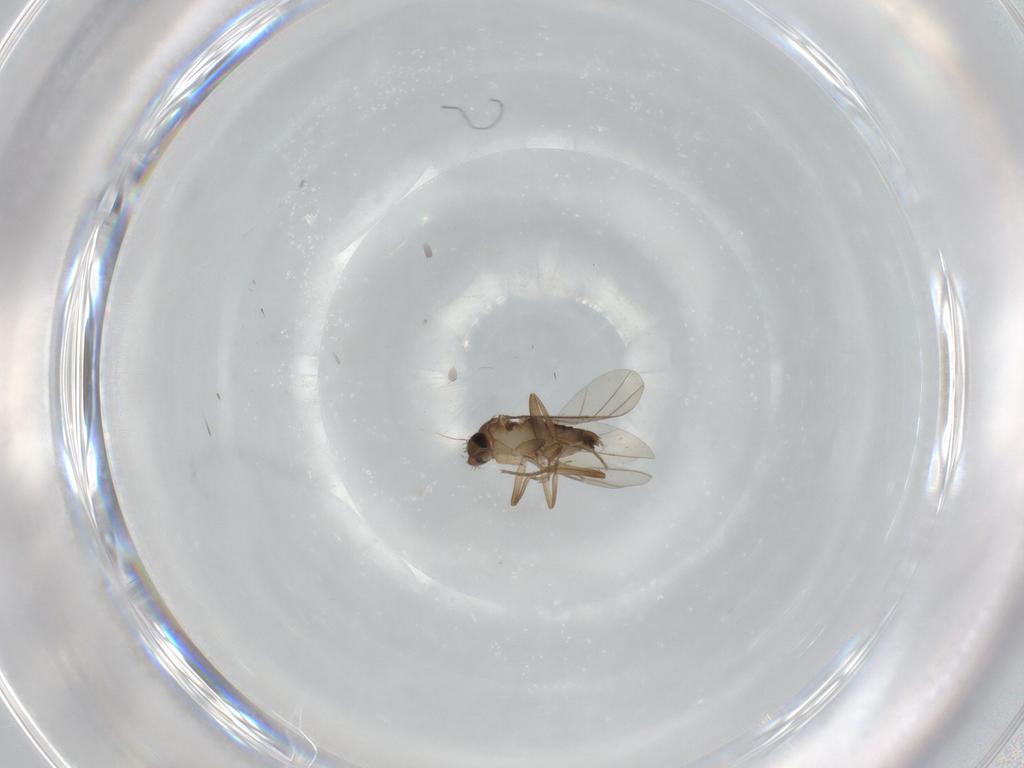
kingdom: Animalia
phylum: Arthropoda
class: Insecta
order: Diptera
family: Phoridae
